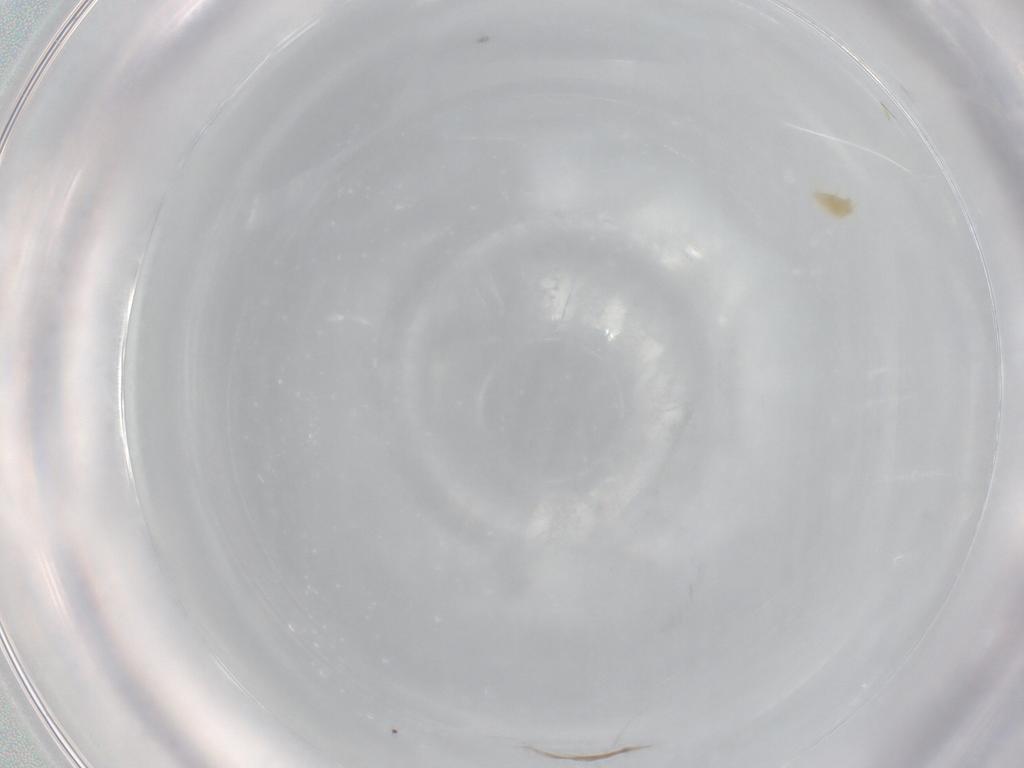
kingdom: Animalia
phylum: Arthropoda
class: Arachnida
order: Trombidiformes
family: Tetranychidae
